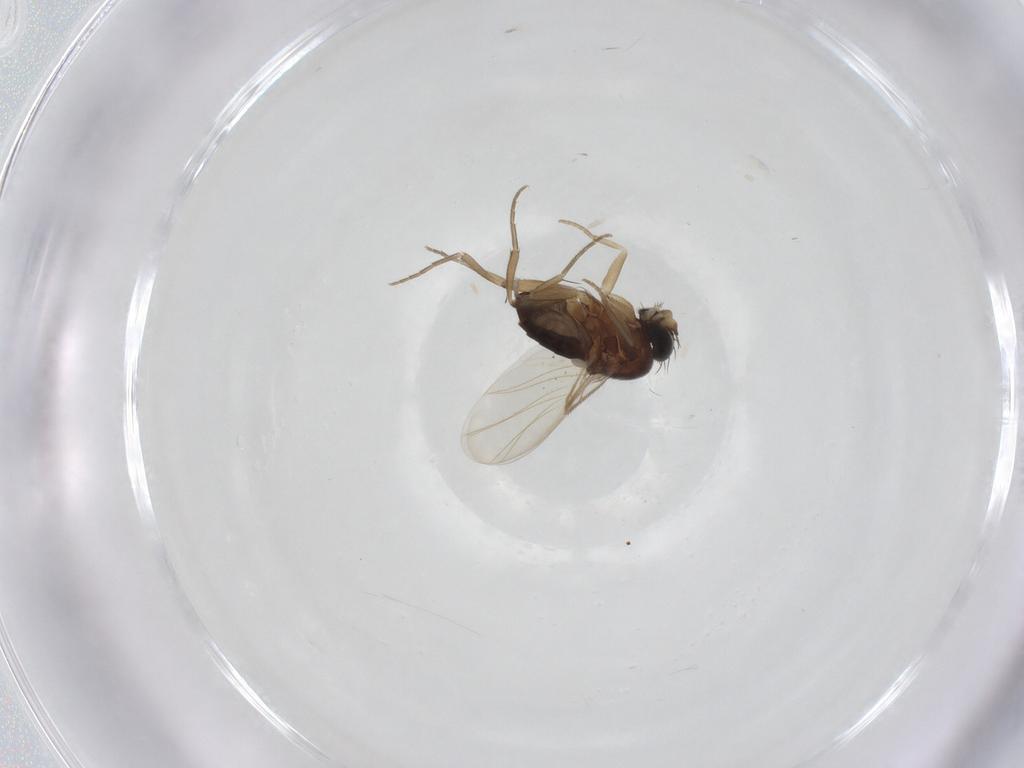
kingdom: Animalia
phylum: Arthropoda
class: Insecta
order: Diptera
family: Phoridae
